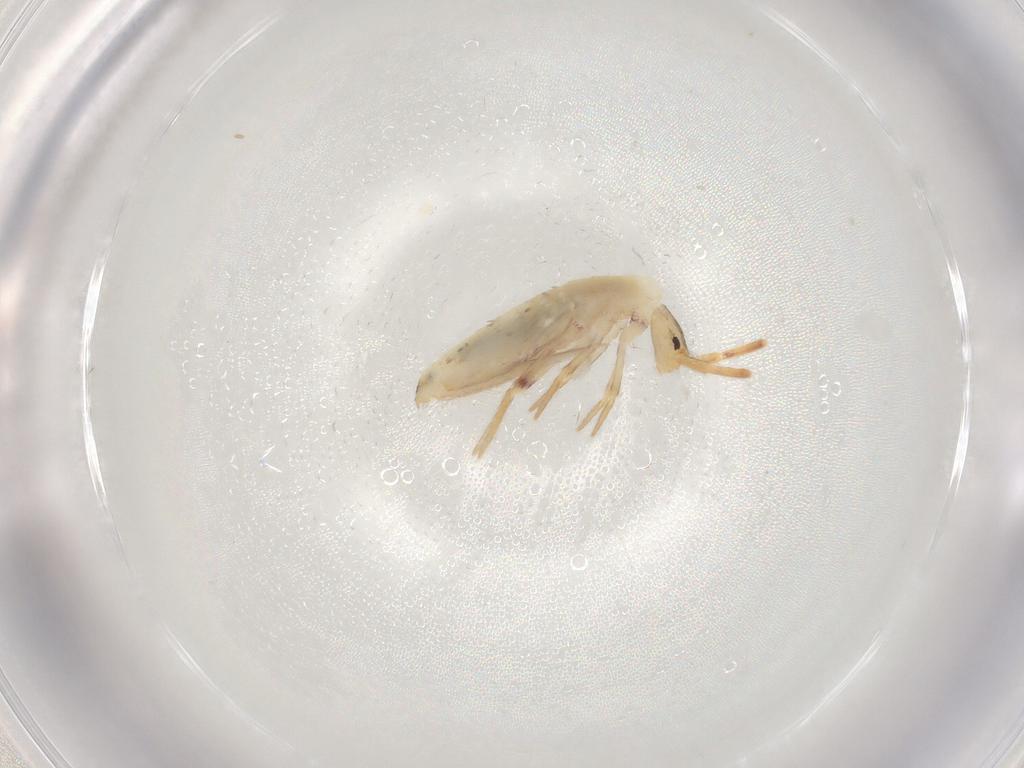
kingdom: Animalia
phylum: Arthropoda
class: Collembola
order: Poduromorpha
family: Hypogastruridae
